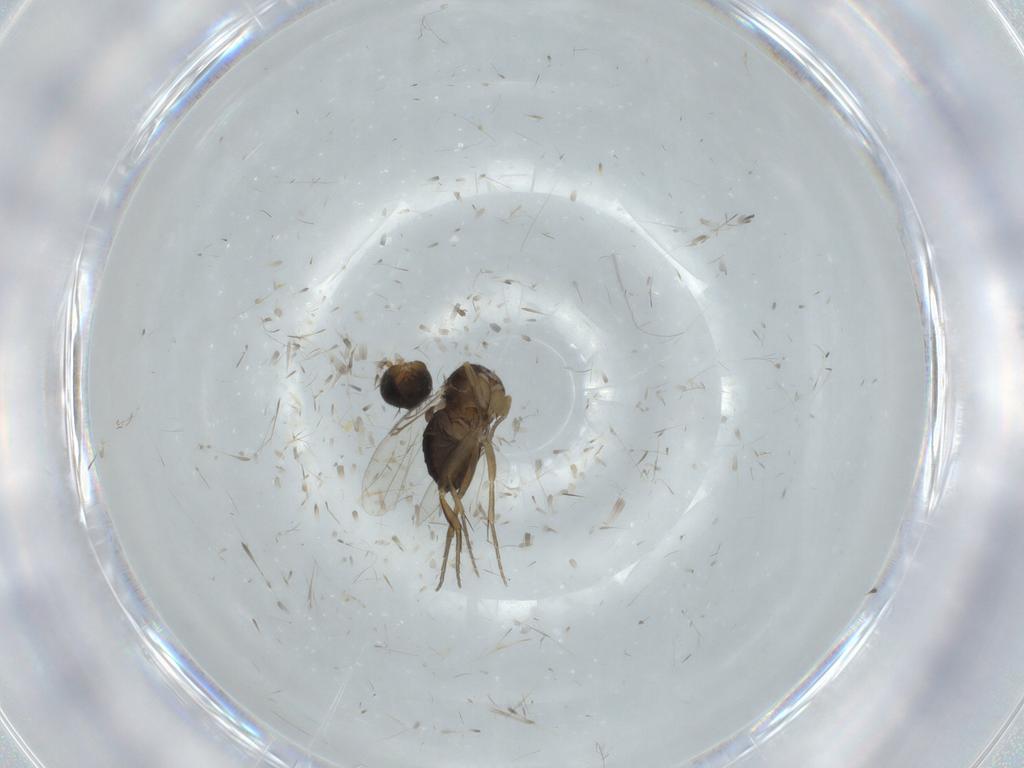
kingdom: Animalia
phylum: Arthropoda
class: Insecta
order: Diptera
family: Phoridae
